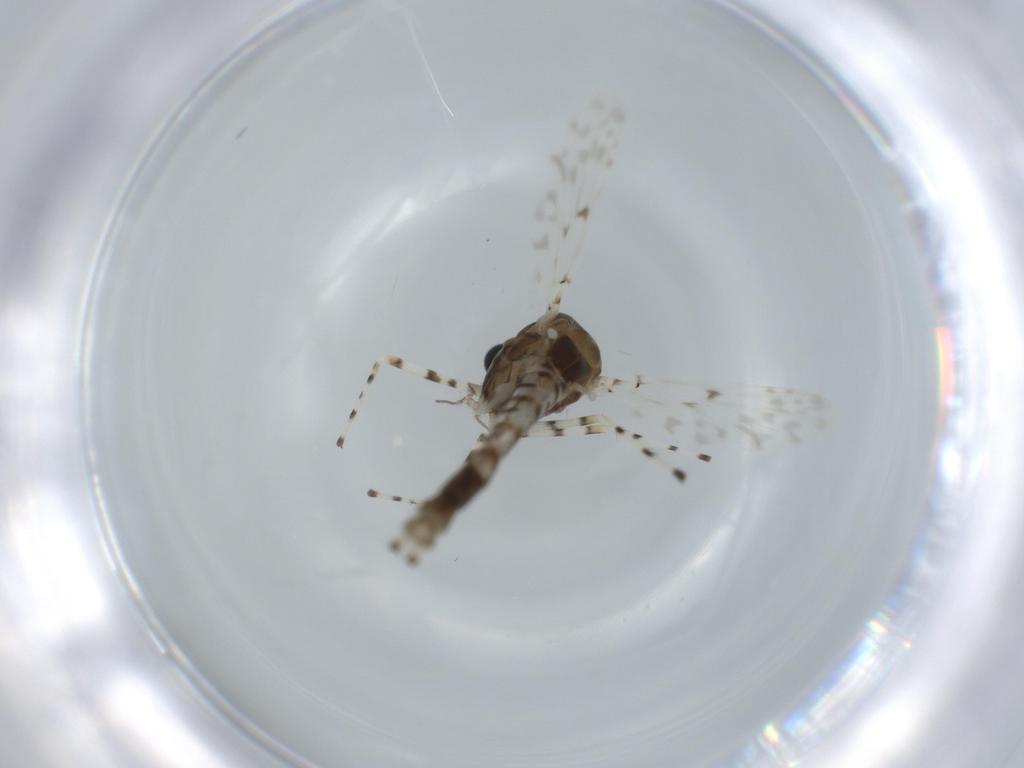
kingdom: Animalia
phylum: Arthropoda
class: Insecta
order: Diptera
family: Chironomidae
